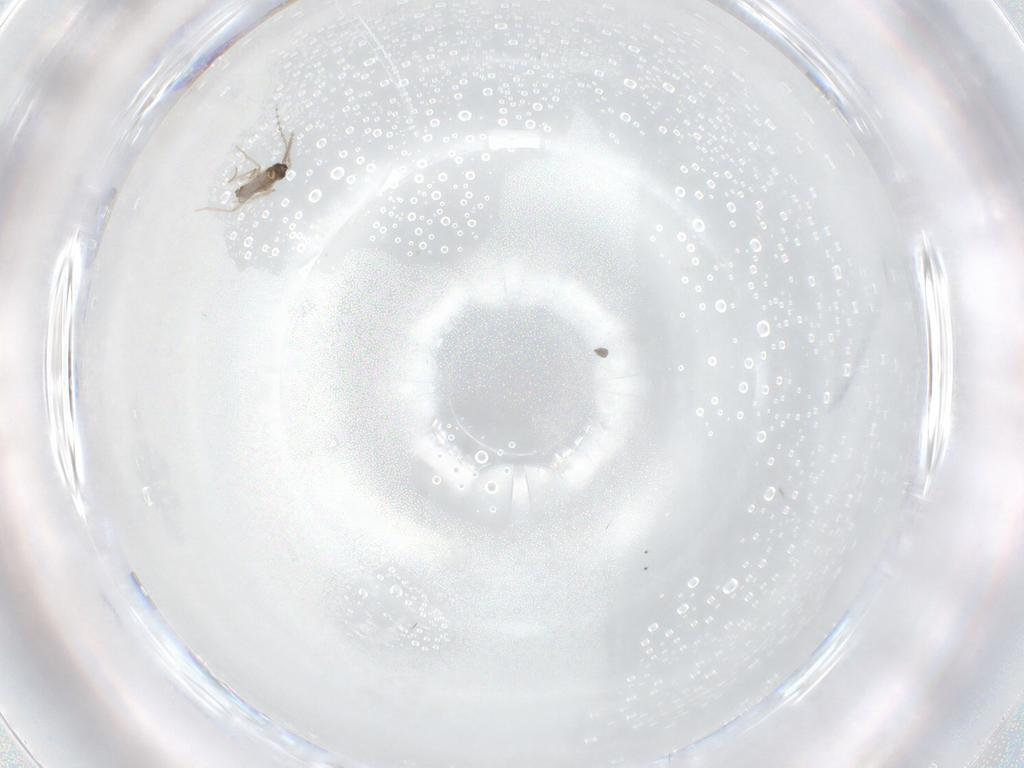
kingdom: Animalia
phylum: Arthropoda
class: Insecta
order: Diptera
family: Cecidomyiidae
